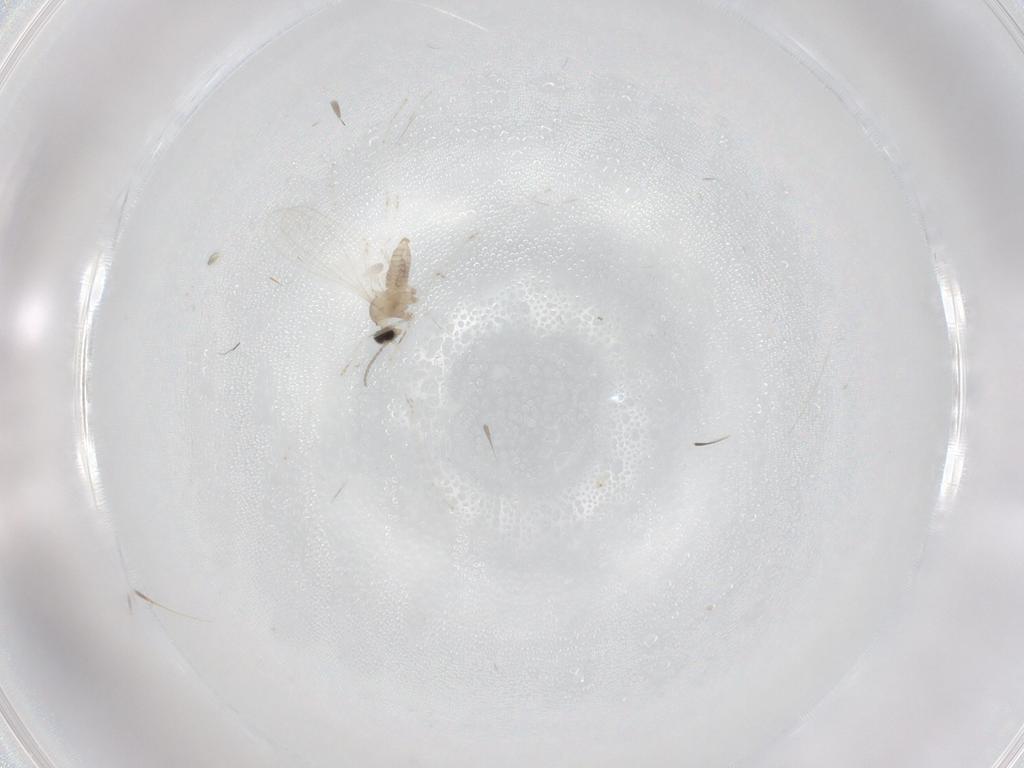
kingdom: Animalia
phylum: Arthropoda
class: Insecta
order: Diptera
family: Cecidomyiidae
